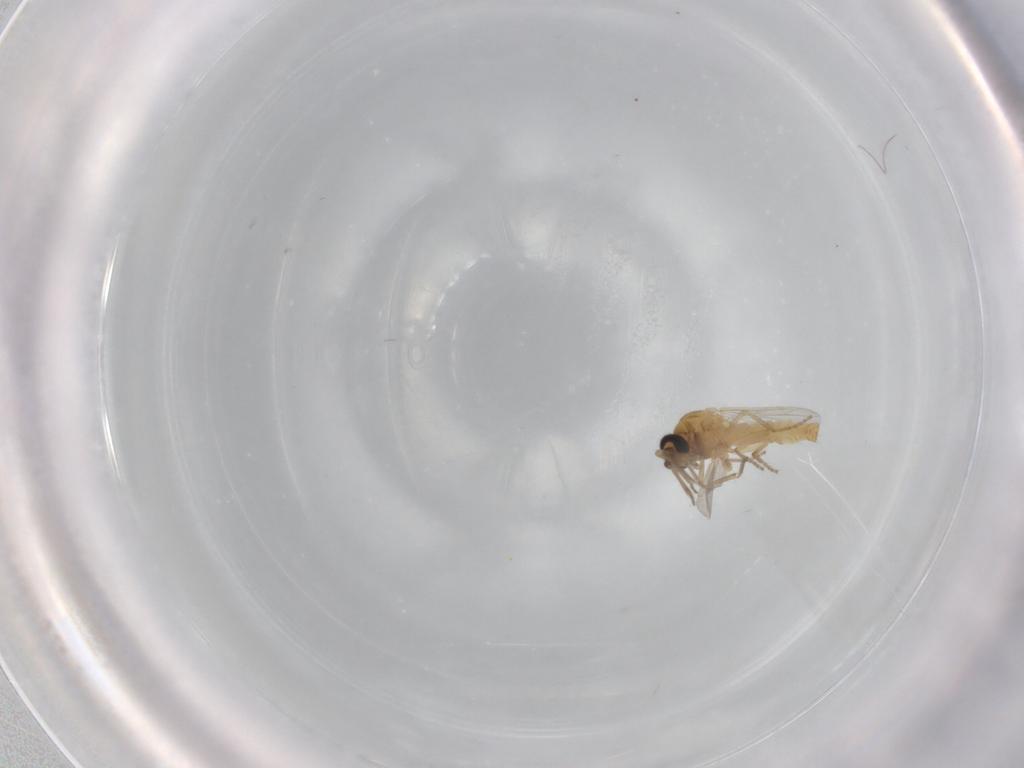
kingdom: Animalia
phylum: Arthropoda
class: Insecta
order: Diptera
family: Ceratopogonidae
